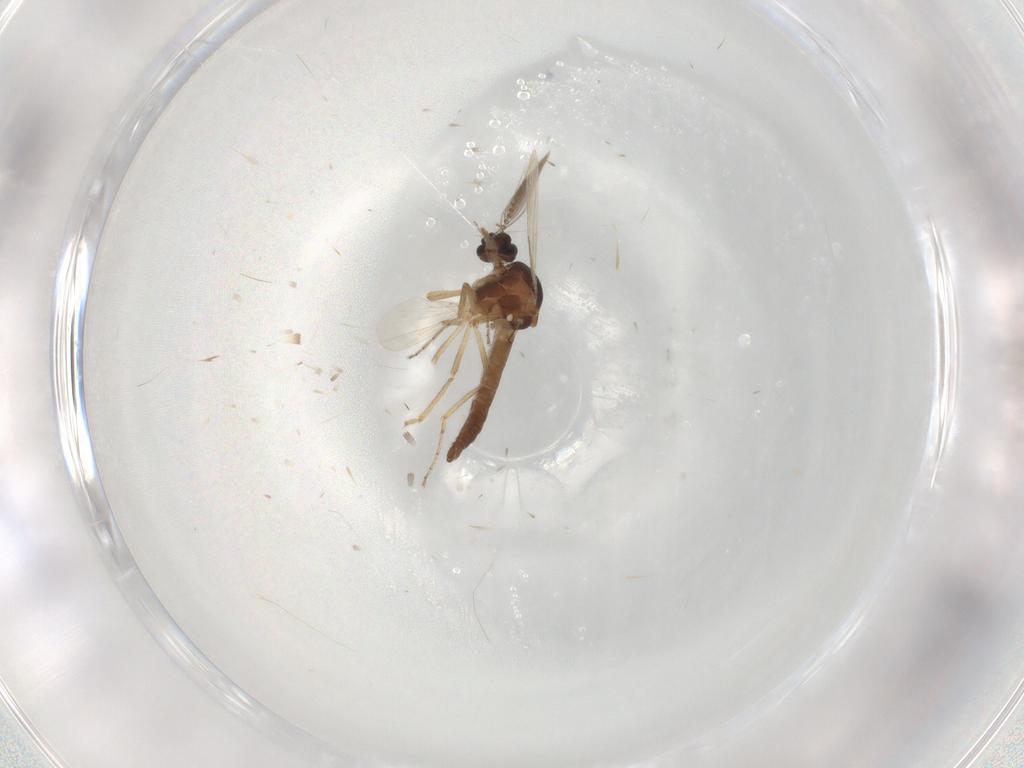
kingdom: Animalia
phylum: Arthropoda
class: Insecta
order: Diptera
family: Ceratopogonidae
